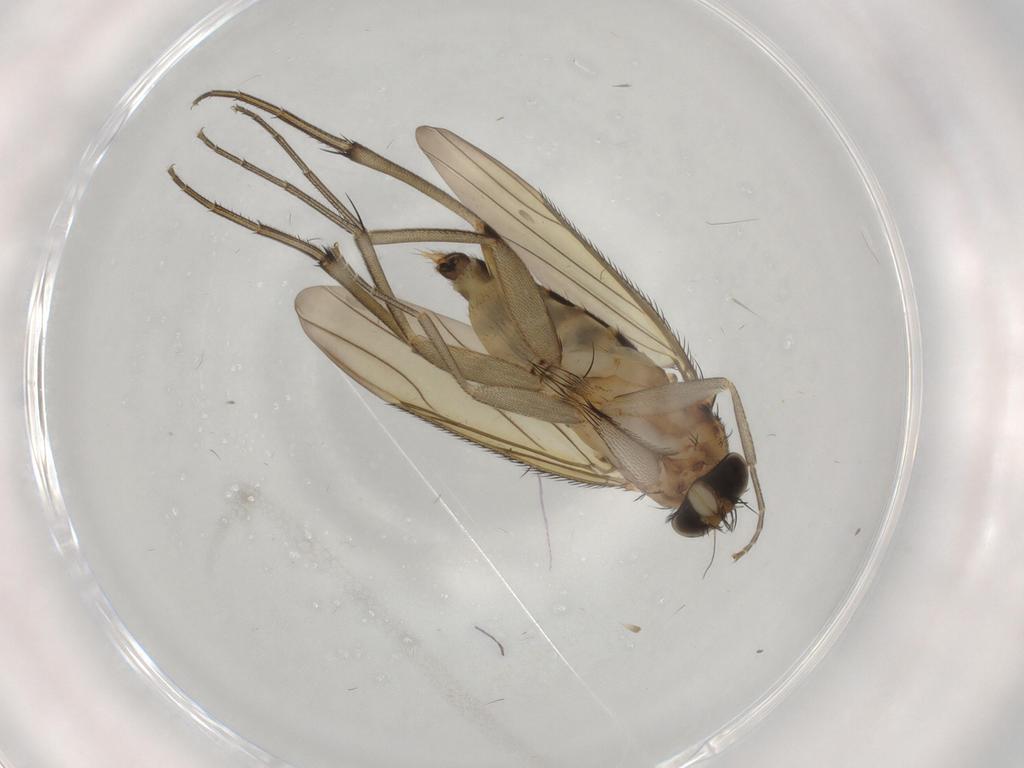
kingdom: Animalia
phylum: Arthropoda
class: Insecta
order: Diptera
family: Phoridae
